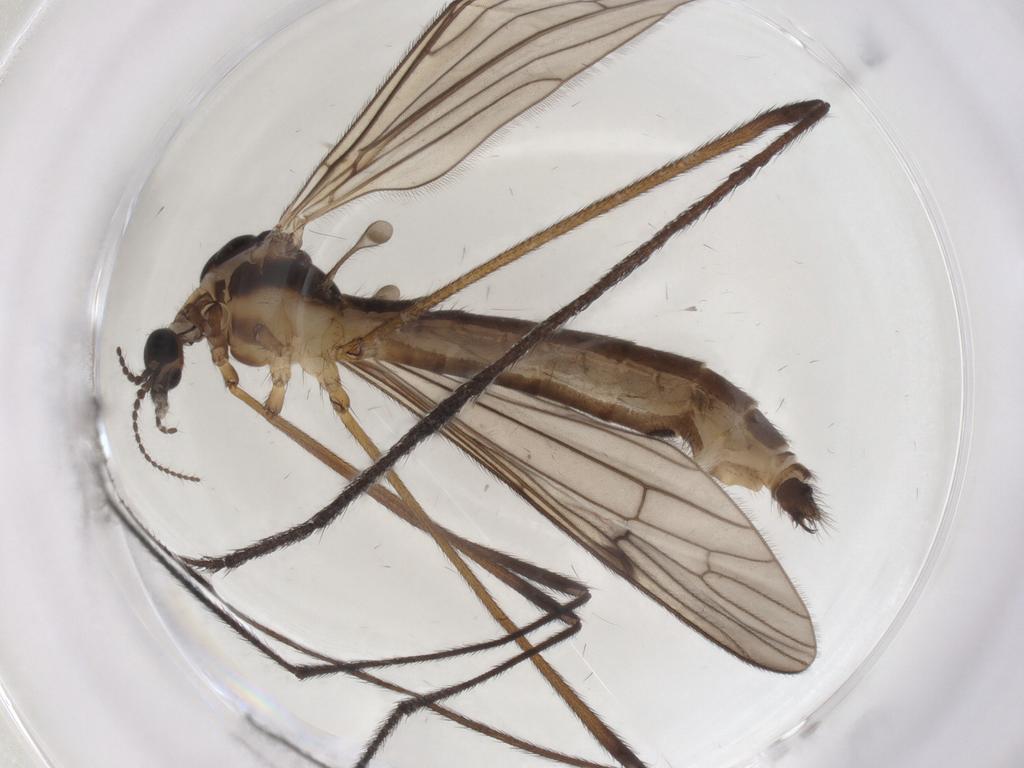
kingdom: Animalia
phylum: Arthropoda
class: Insecta
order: Diptera
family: Limoniidae
